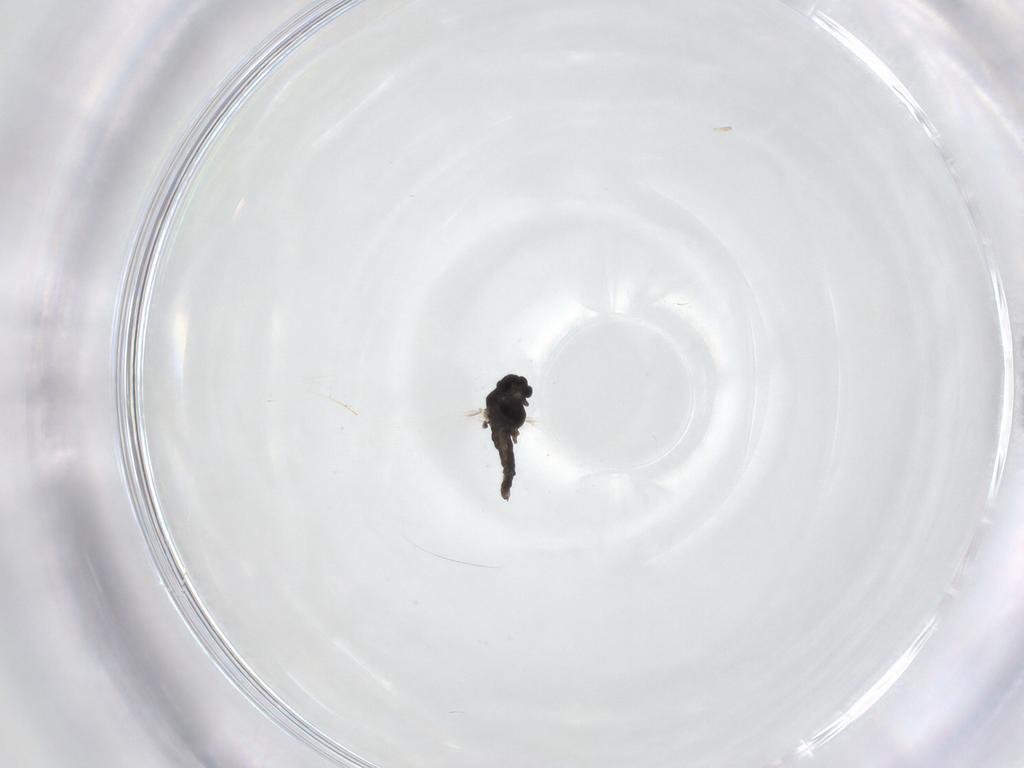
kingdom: Animalia
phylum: Arthropoda
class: Insecta
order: Diptera
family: Chironomidae
